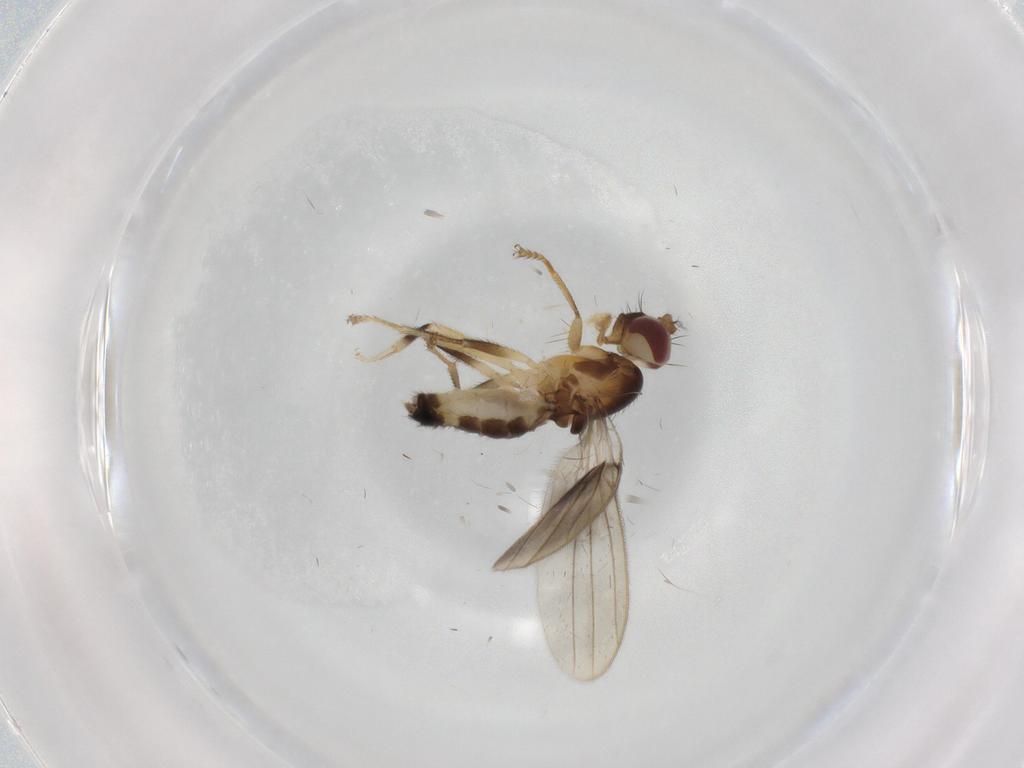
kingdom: Animalia
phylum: Arthropoda
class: Insecta
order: Diptera
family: Periscelididae
